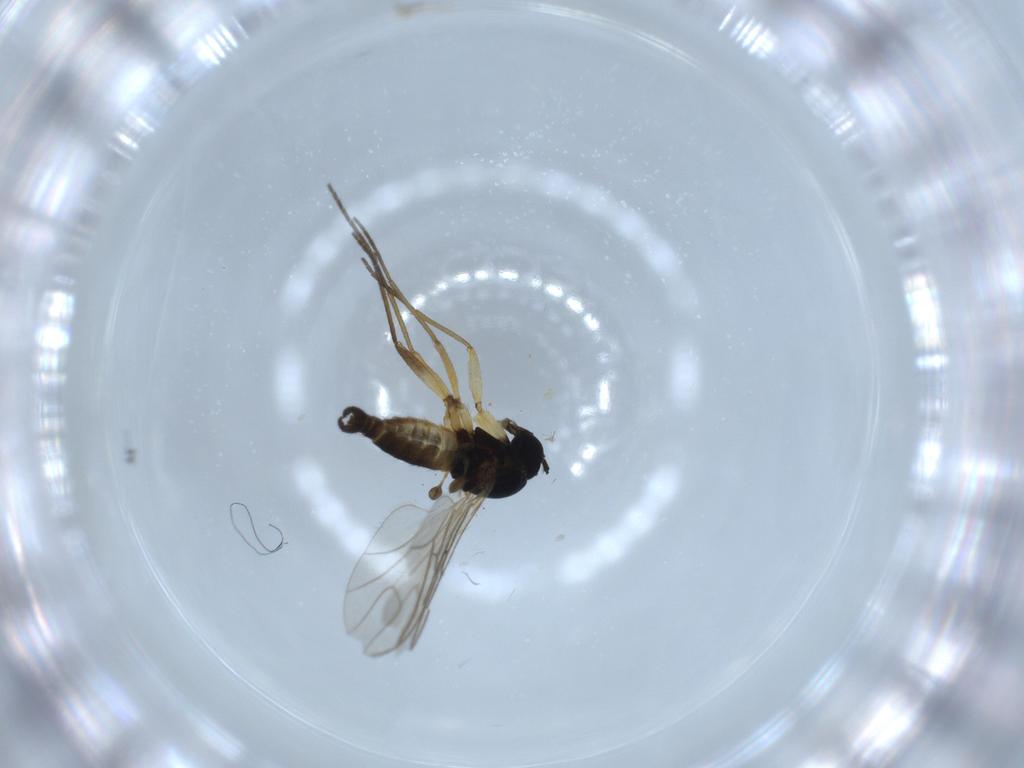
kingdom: Animalia
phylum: Arthropoda
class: Insecta
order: Diptera
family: Sciaridae
